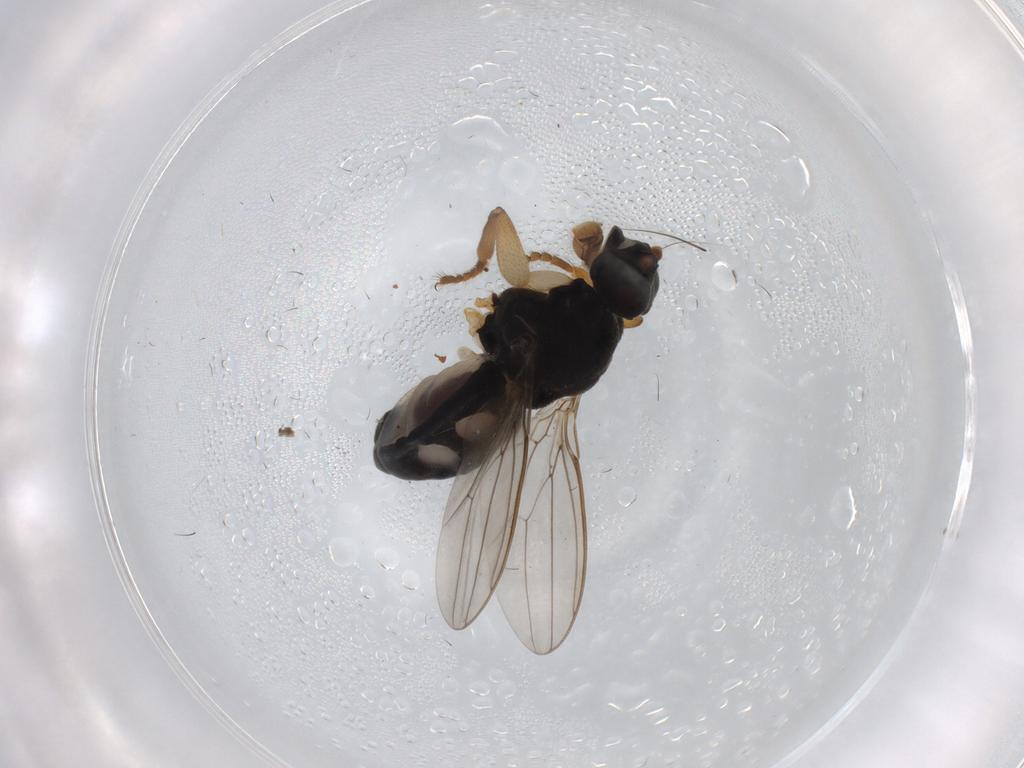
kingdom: Animalia
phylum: Arthropoda
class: Insecta
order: Diptera
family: Sphaeroceridae
